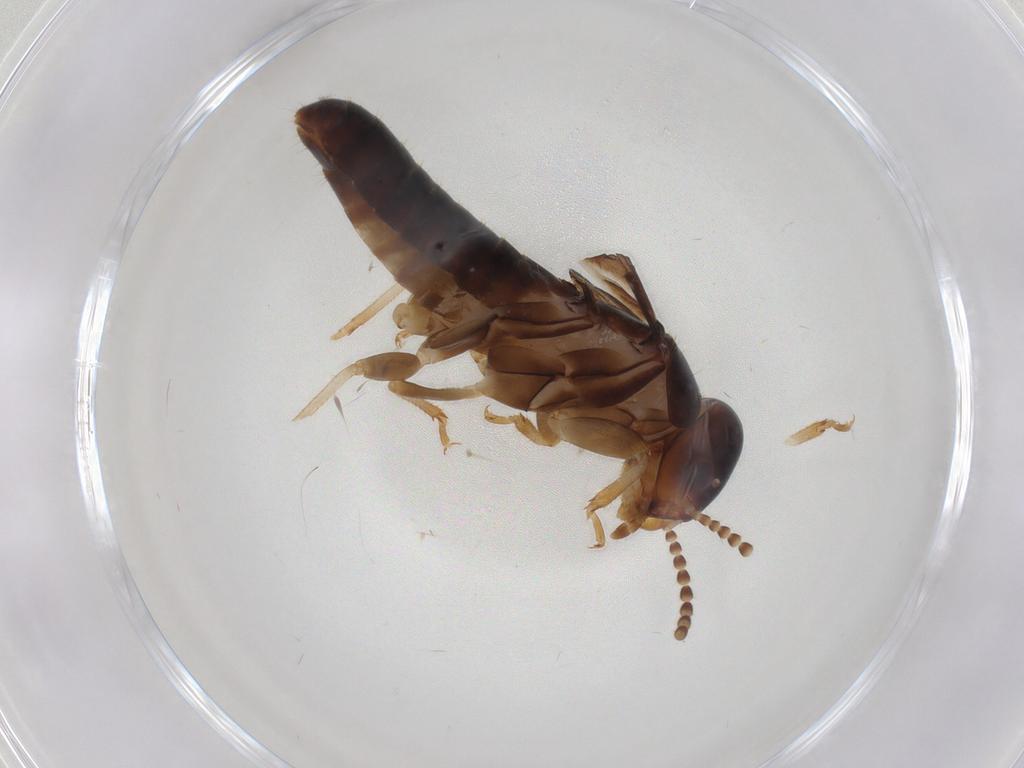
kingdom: Animalia
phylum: Arthropoda
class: Insecta
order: Blattodea
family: Kalotermitidae
